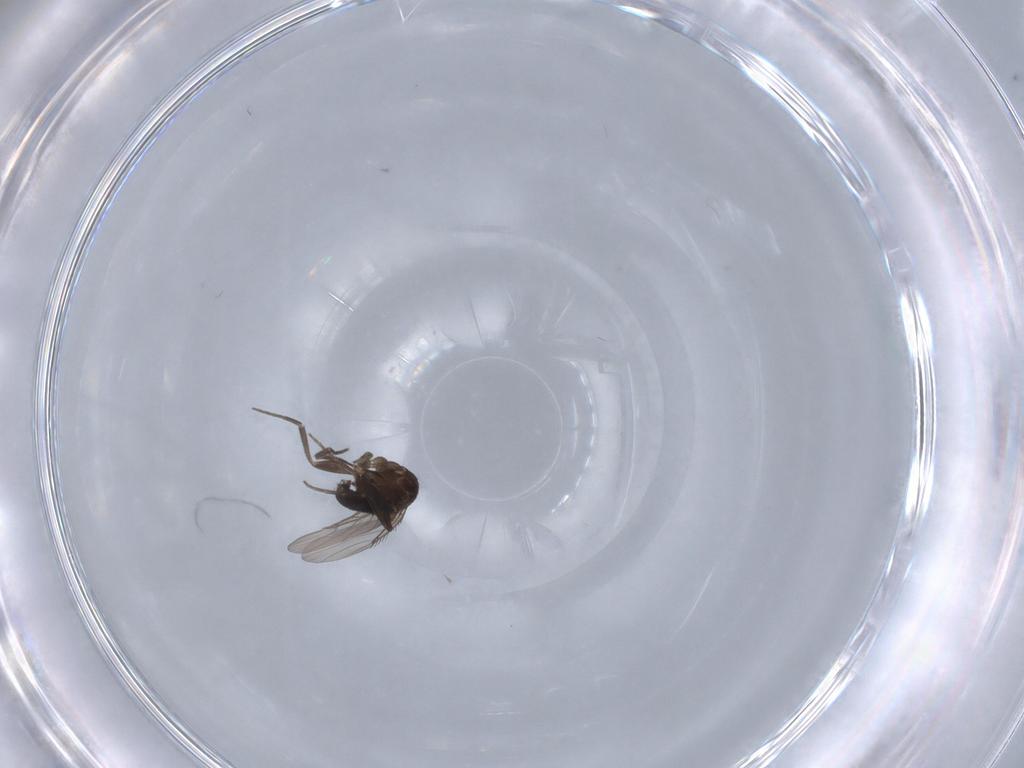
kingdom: Animalia
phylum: Arthropoda
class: Insecta
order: Diptera
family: Phoridae
